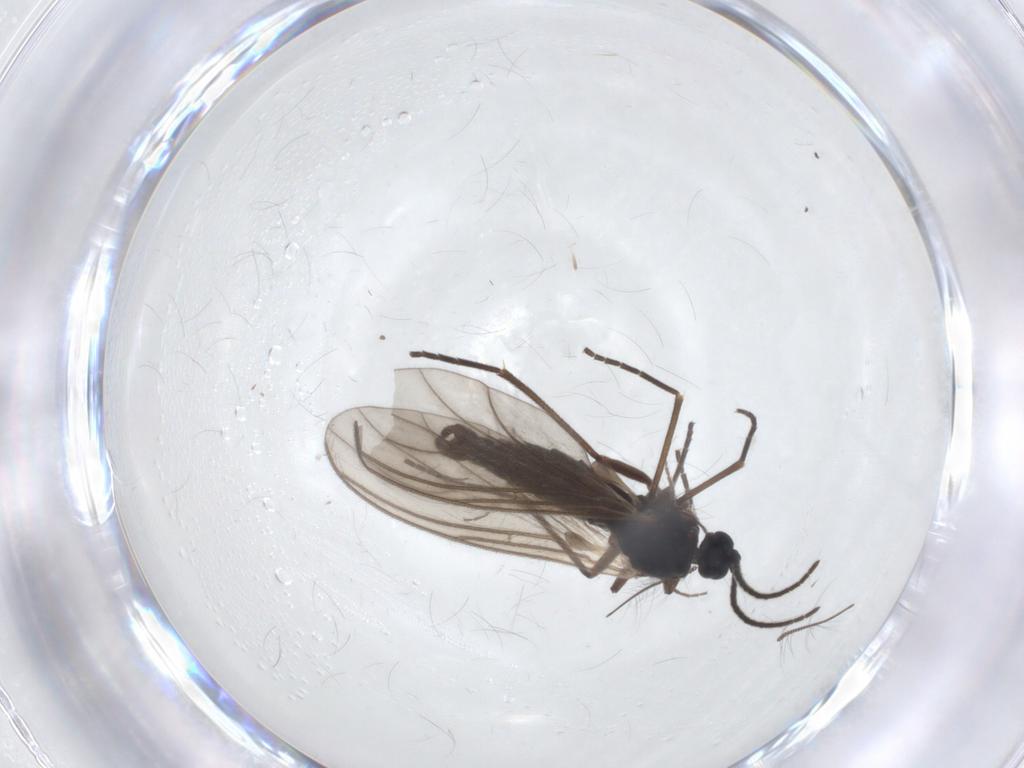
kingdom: Animalia
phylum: Arthropoda
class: Insecta
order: Diptera
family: Sciaridae
